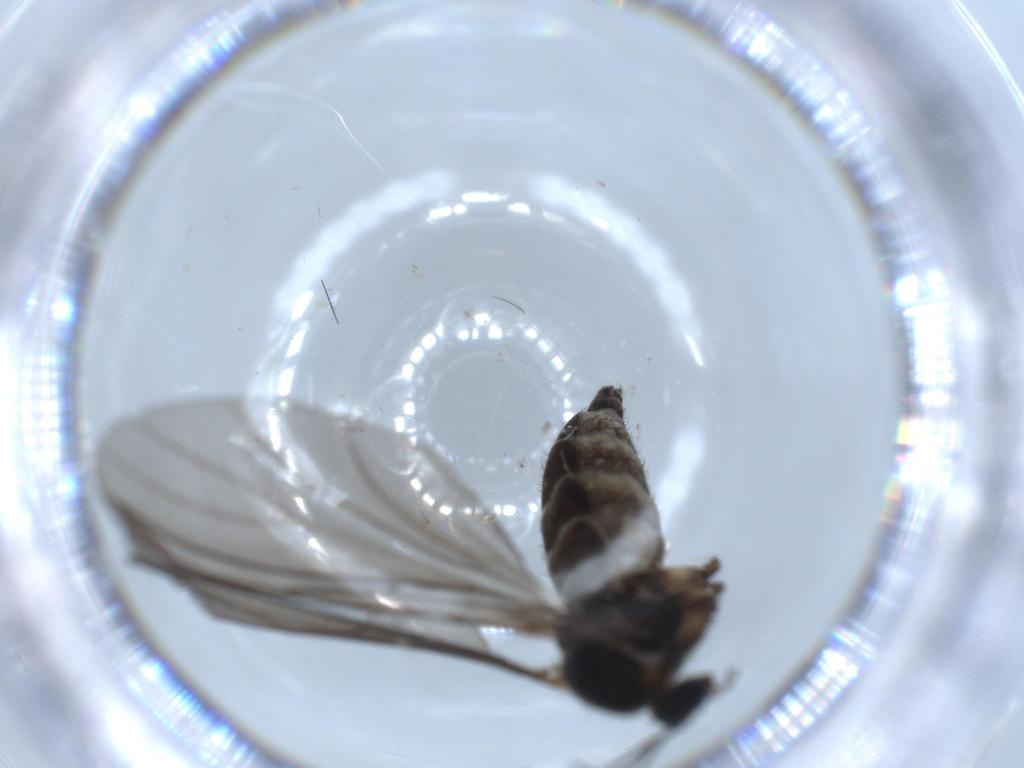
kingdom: Animalia
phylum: Arthropoda
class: Insecta
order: Diptera
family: Sciaridae
